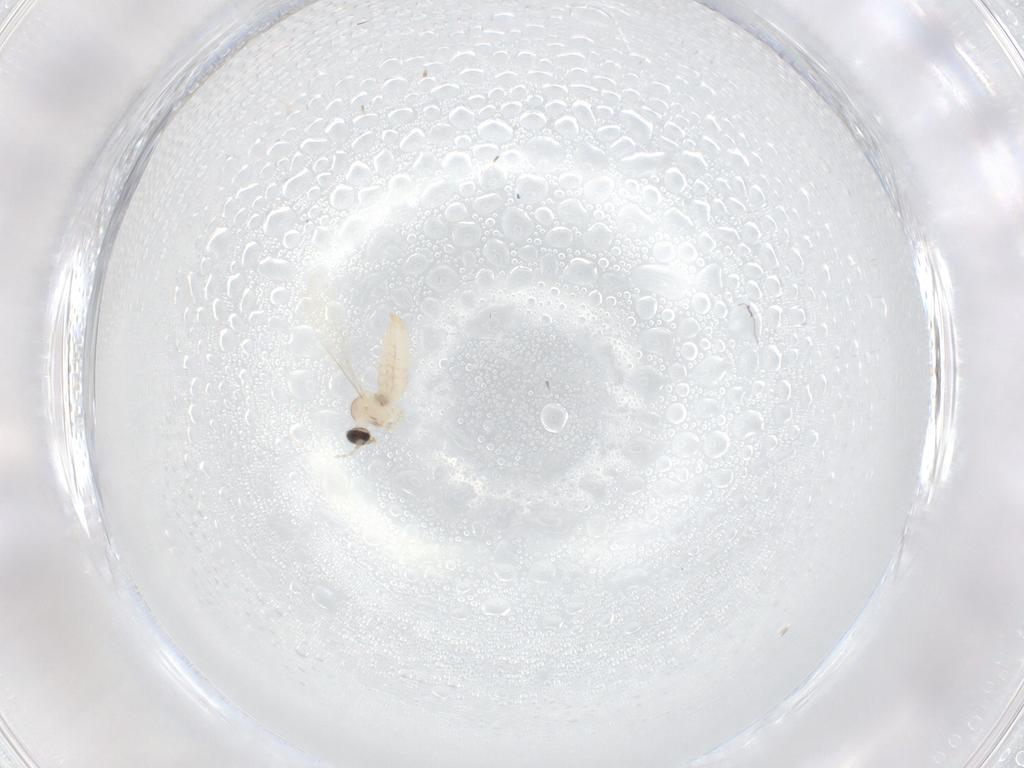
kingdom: Animalia
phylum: Arthropoda
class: Insecta
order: Diptera
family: Cecidomyiidae
